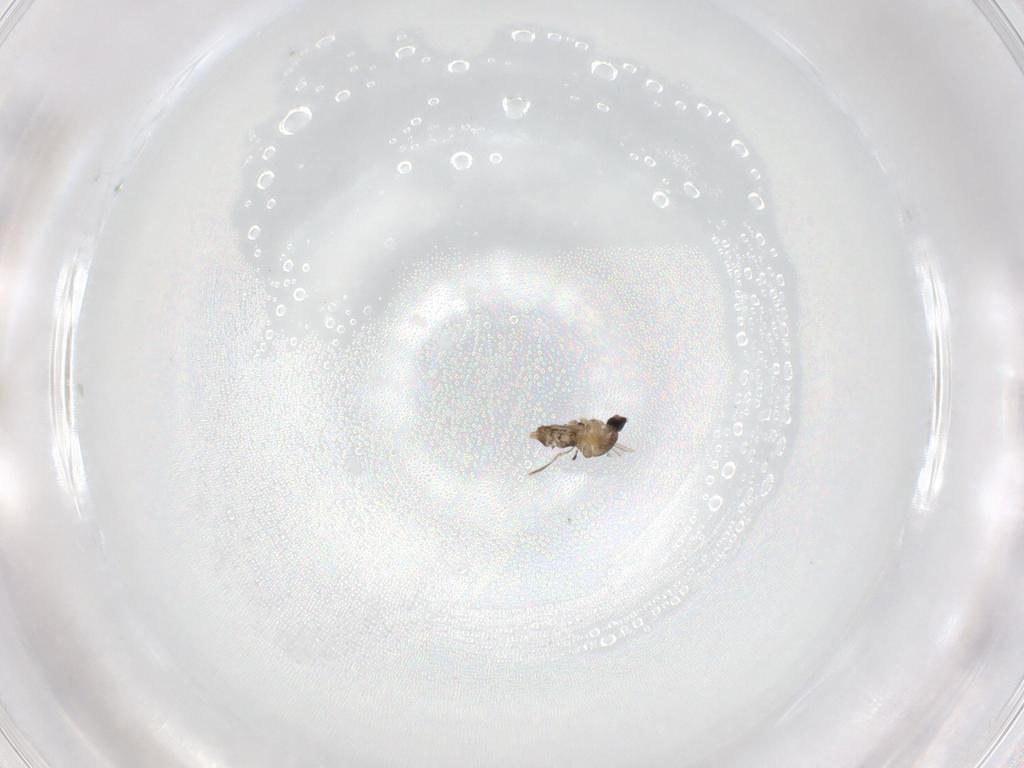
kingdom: Animalia
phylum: Arthropoda
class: Insecta
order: Diptera
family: Cecidomyiidae
